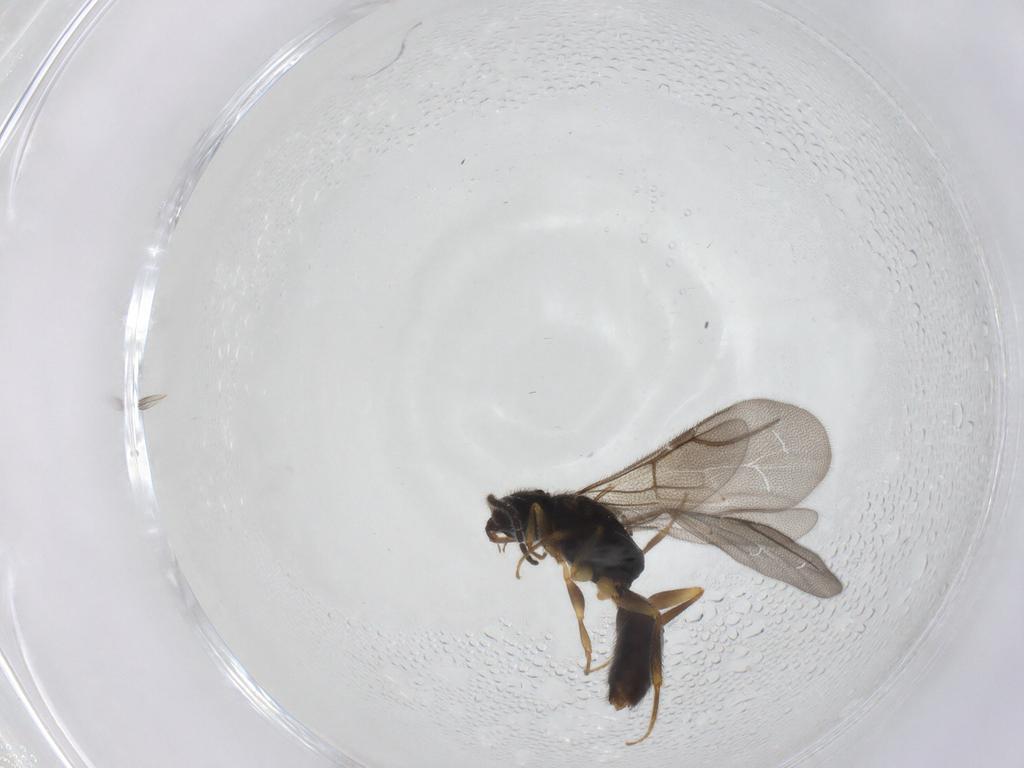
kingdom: Animalia
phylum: Arthropoda
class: Insecta
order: Hymenoptera
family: Bethylidae
